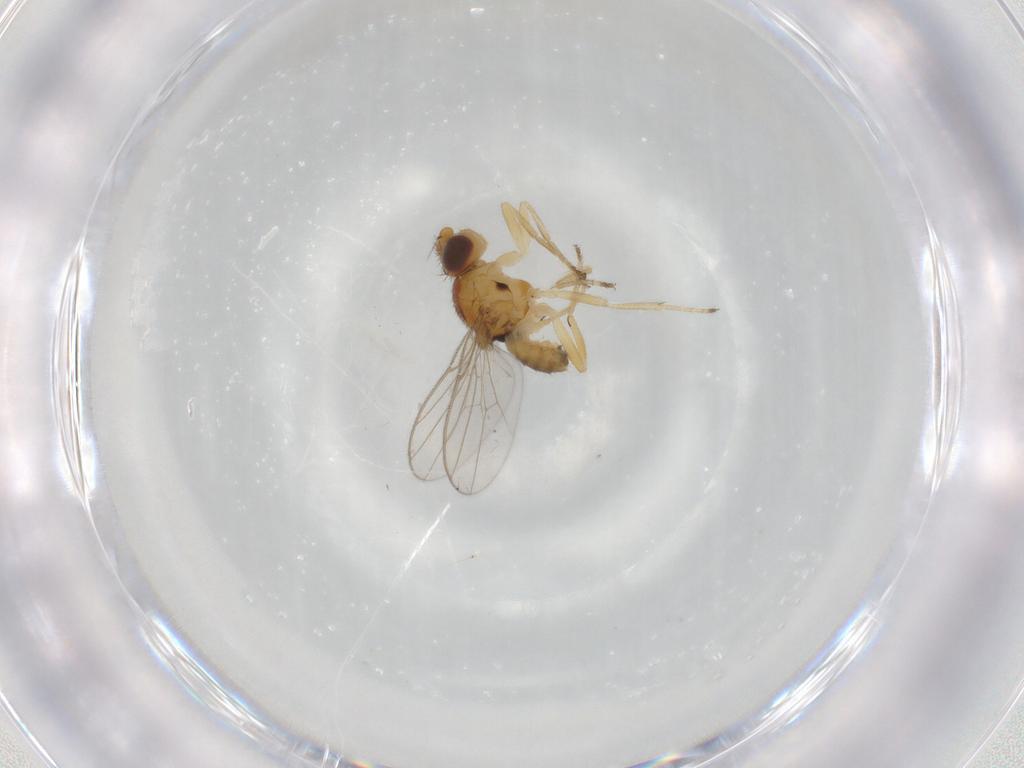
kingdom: Animalia
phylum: Arthropoda
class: Insecta
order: Diptera
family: Chloropidae
